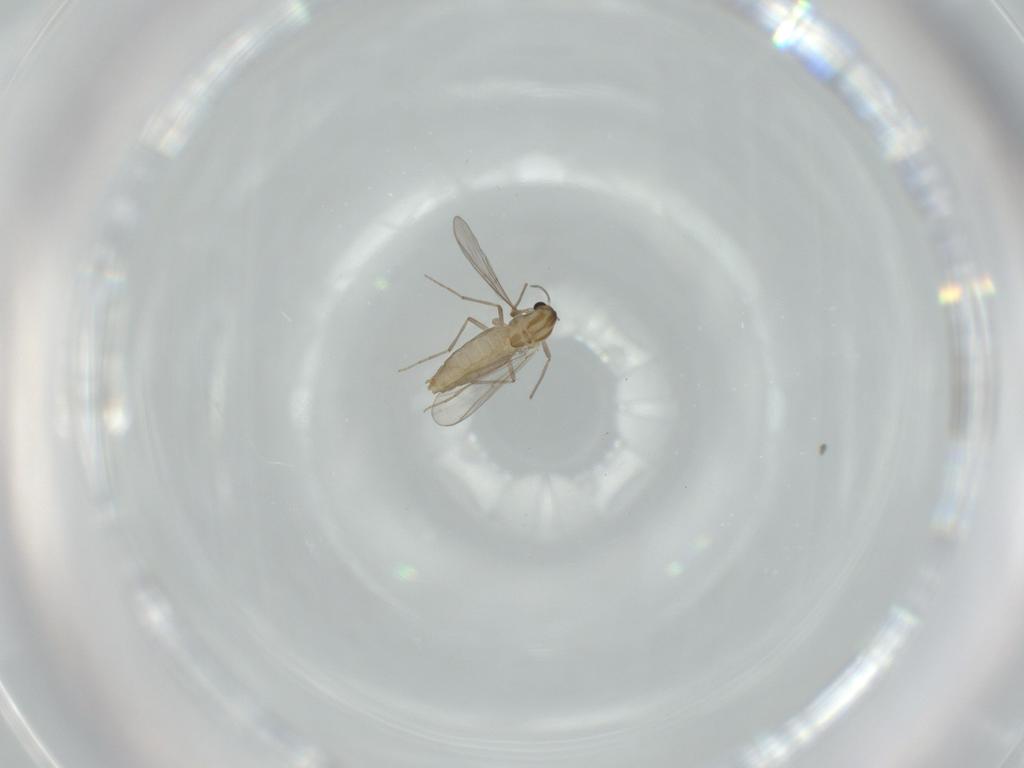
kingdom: Animalia
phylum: Arthropoda
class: Insecta
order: Diptera
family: Chironomidae
